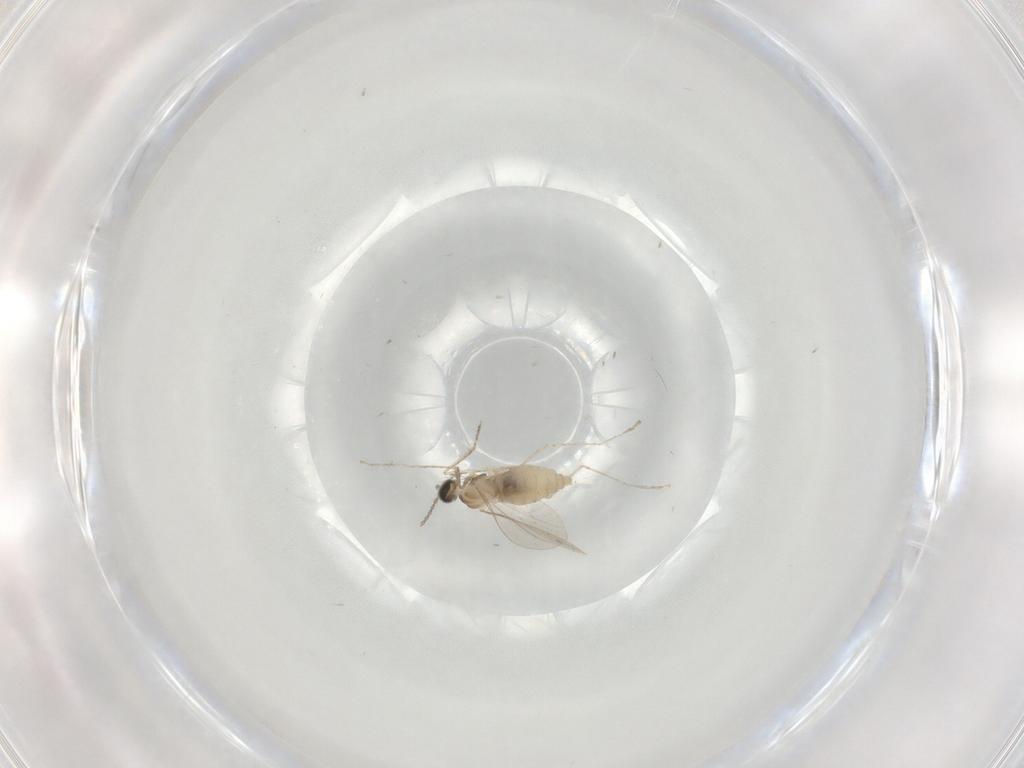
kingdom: Animalia
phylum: Arthropoda
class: Insecta
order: Diptera
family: Cecidomyiidae
